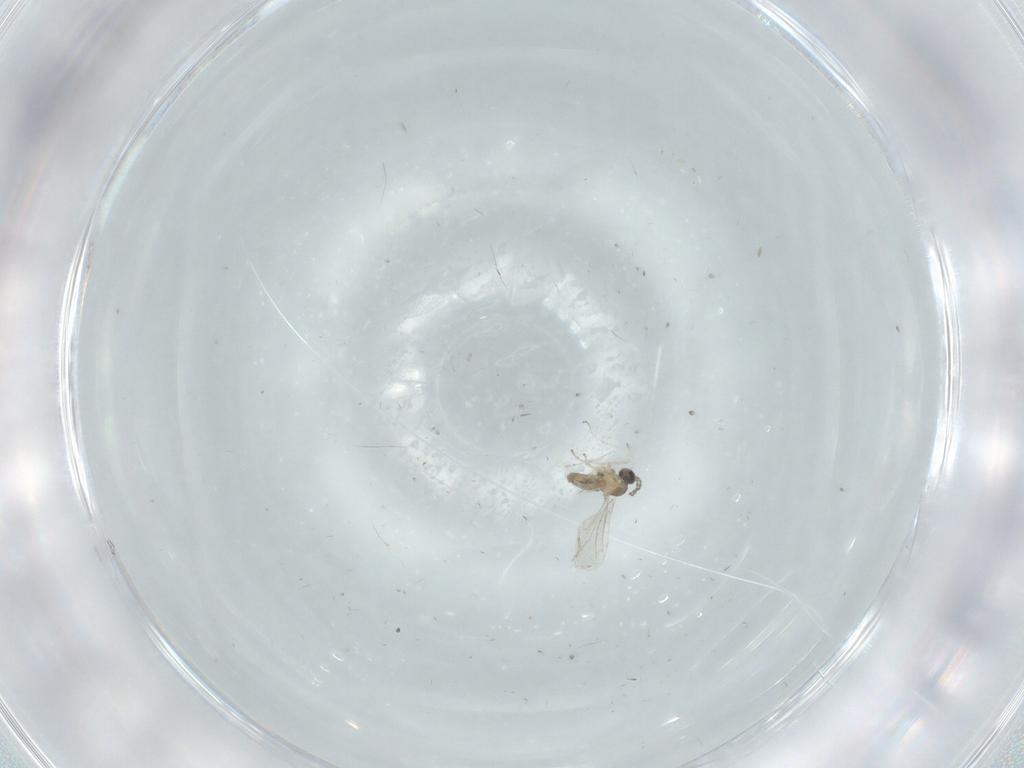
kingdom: Animalia
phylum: Arthropoda
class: Insecta
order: Diptera
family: Cecidomyiidae
